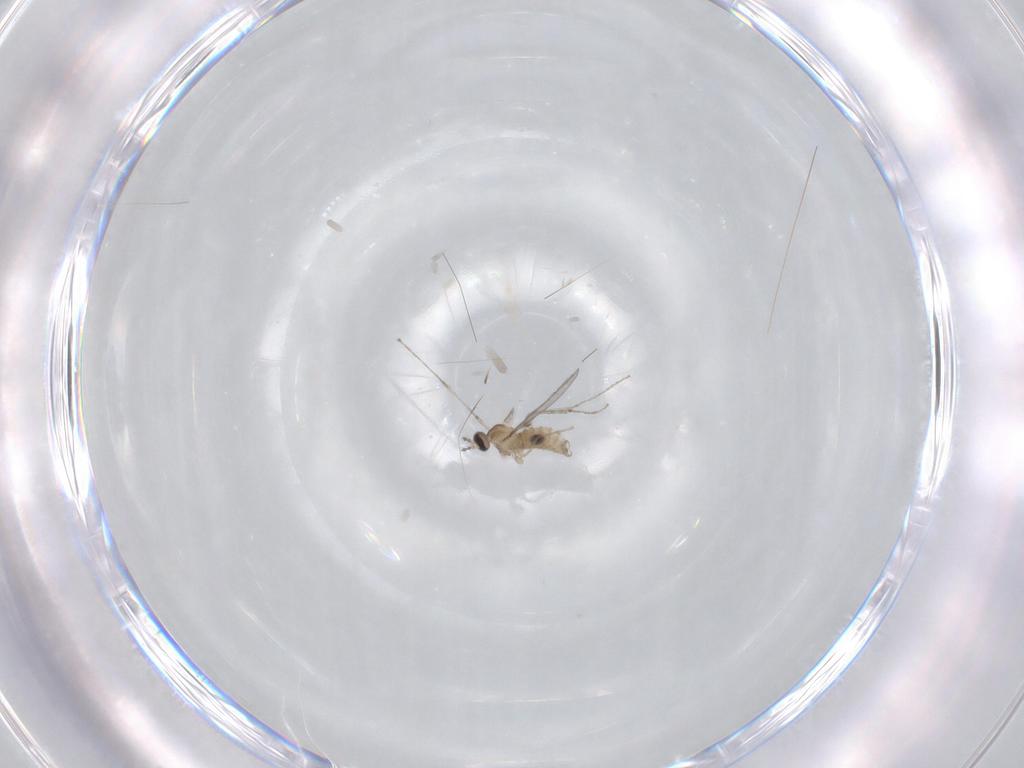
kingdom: Animalia
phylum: Arthropoda
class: Insecta
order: Diptera
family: Cecidomyiidae
